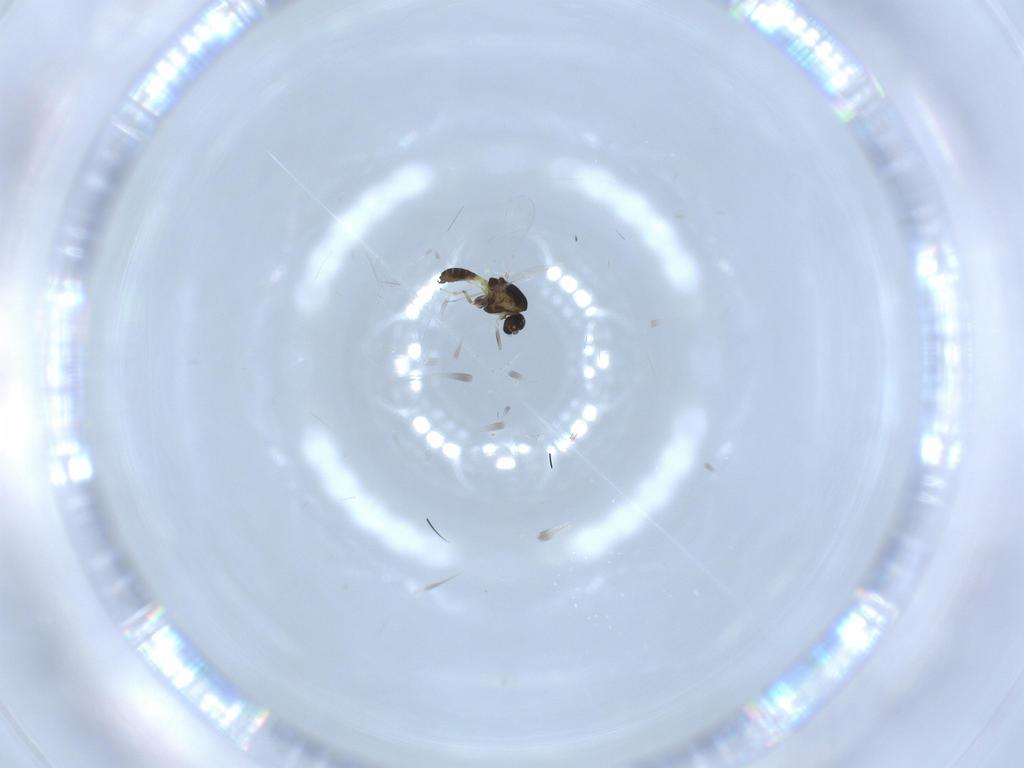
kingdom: Animalia
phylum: Arthropoda
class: Insecta
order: Diptera
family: Chironomidae
